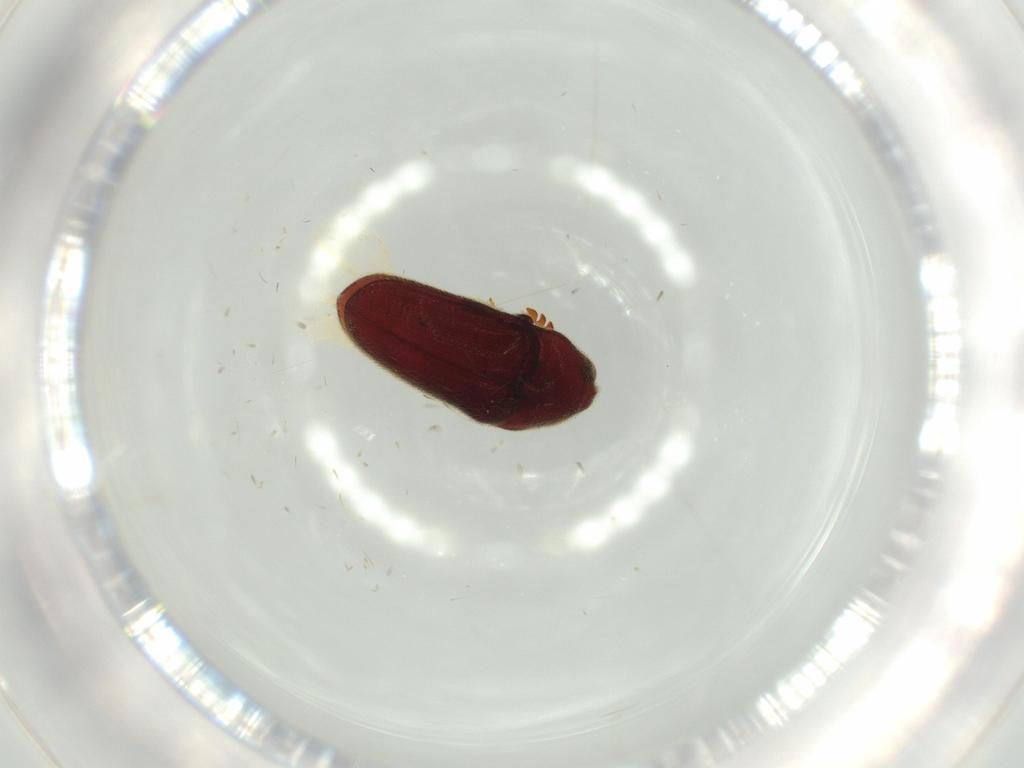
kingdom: Animalia
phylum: Arthropoda
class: Insecta
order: Coleoptera
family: Throscidae
